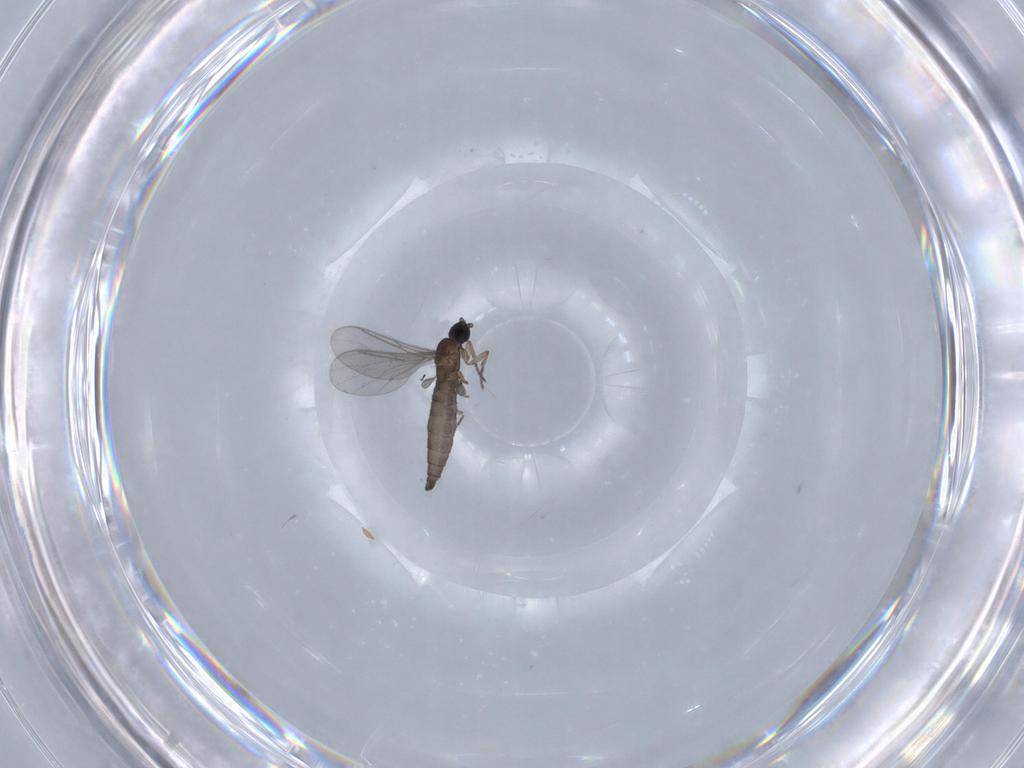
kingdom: Animalia
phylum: Arthropoda
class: Insecta
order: Diptera
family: Sciaridae
